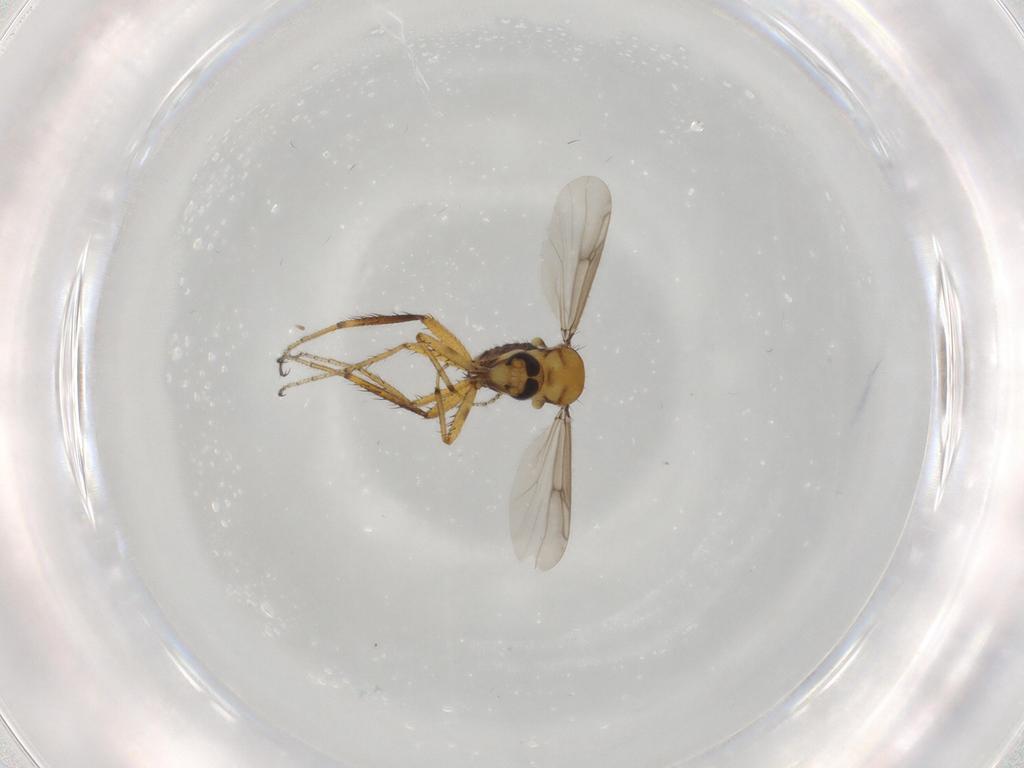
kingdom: Animalia
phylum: Arthropoda
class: Insecta
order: Diptera
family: Ceratopogonidae
